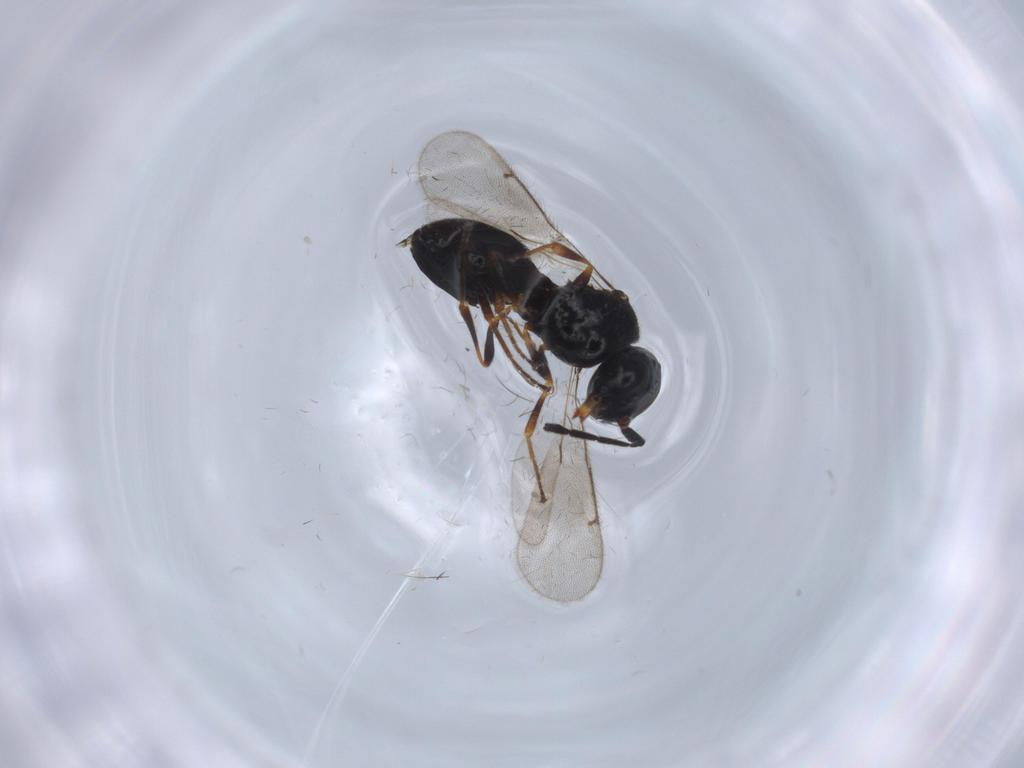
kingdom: Animalia
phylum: Arthropoda
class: Insecta
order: Hymenoptera
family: Scelionidae
